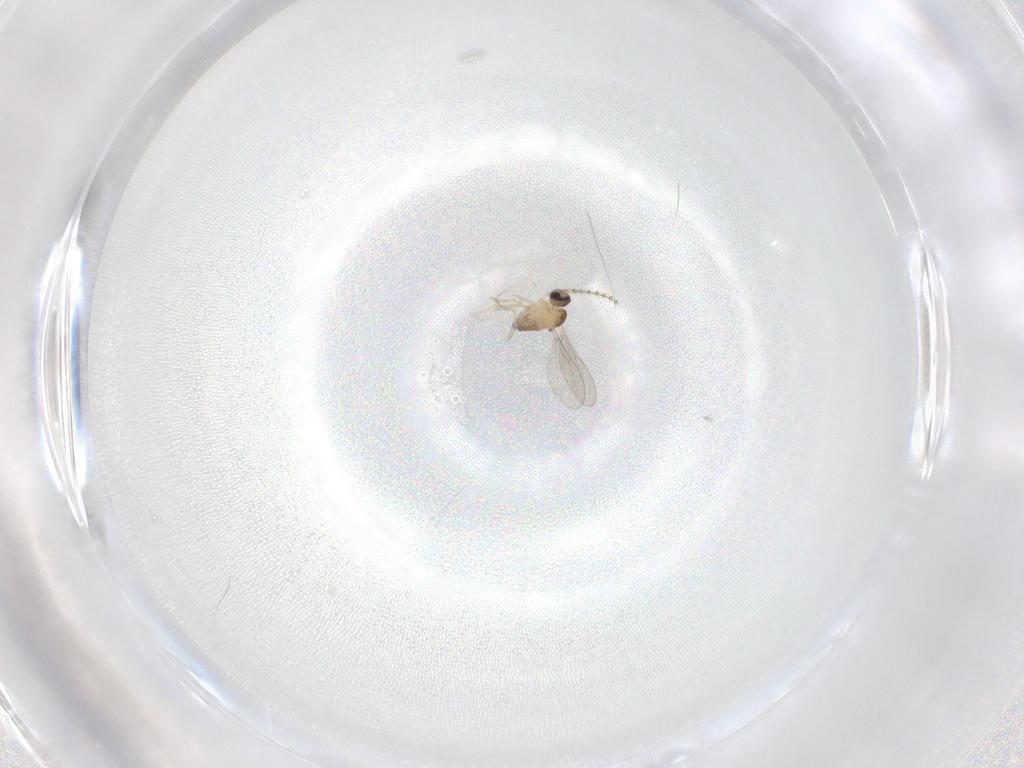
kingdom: Animalia
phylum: Arthropoda
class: Insecta
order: Diptera
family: Cecidomyiidae
